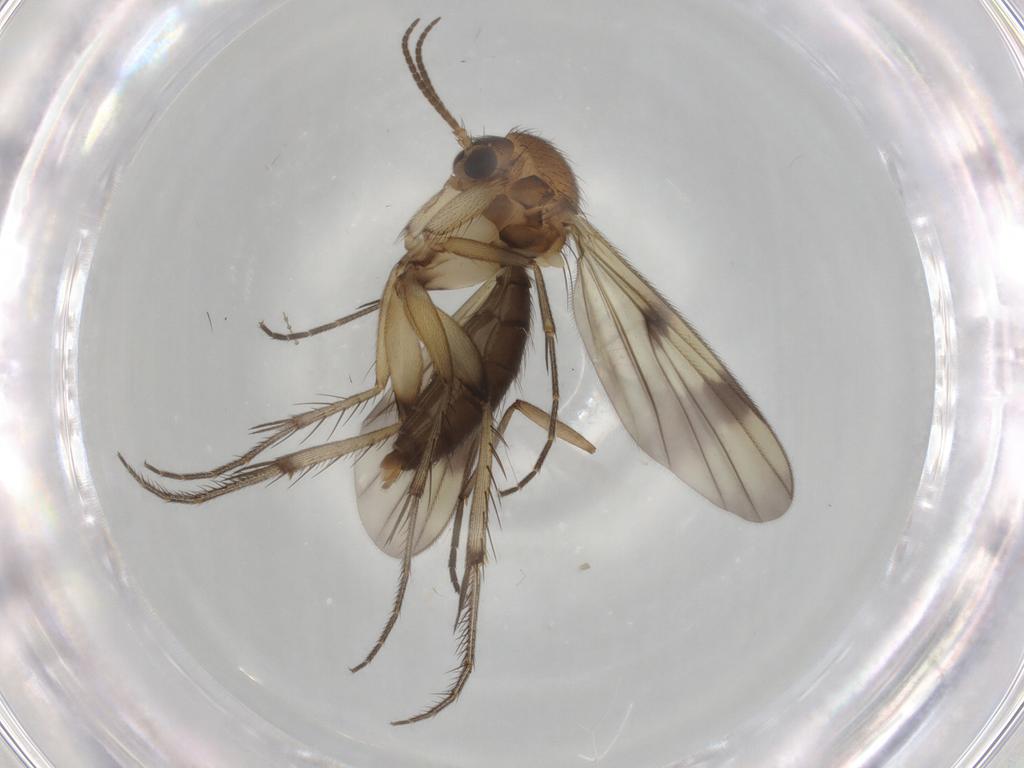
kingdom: Animalia
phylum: Arthropoda
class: Insecta
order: Diptera
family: Sciaridae
